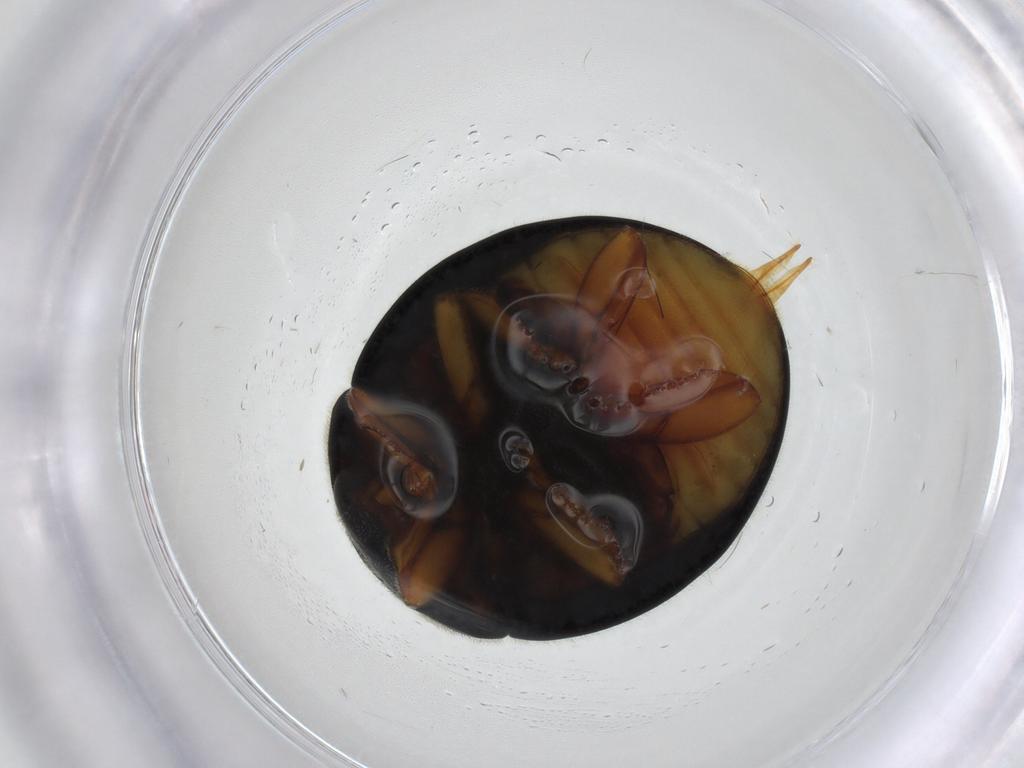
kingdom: Animalia
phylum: Arthropoda
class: Insecta
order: Coleoptera
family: Coccinellidae
